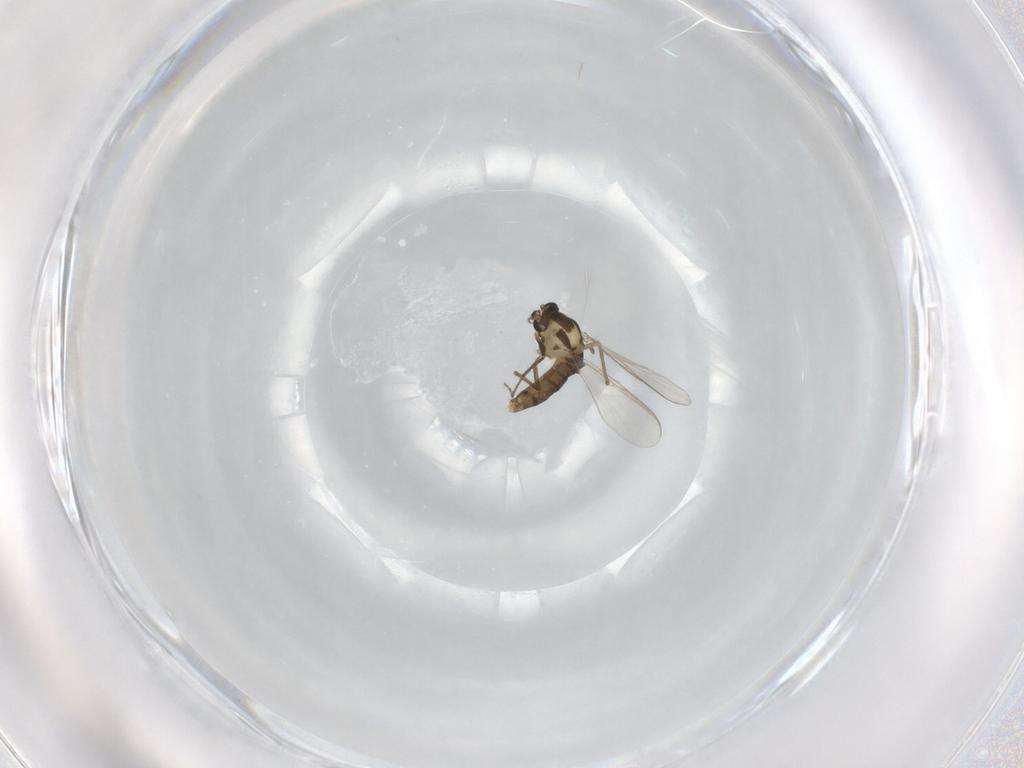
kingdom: Animalia
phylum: Arthropoda
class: Insecta
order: Diptera
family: Chironomidae
